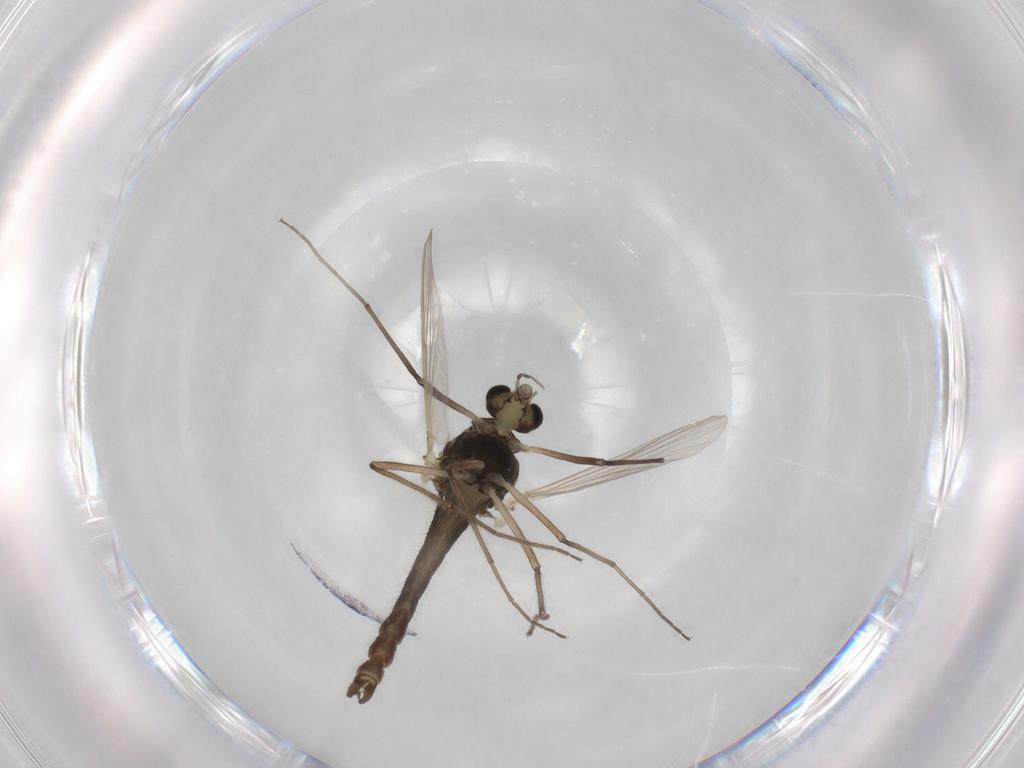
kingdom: Animalia
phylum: Arthropoda
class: Insecta
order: Diptera
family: Chironomidae
